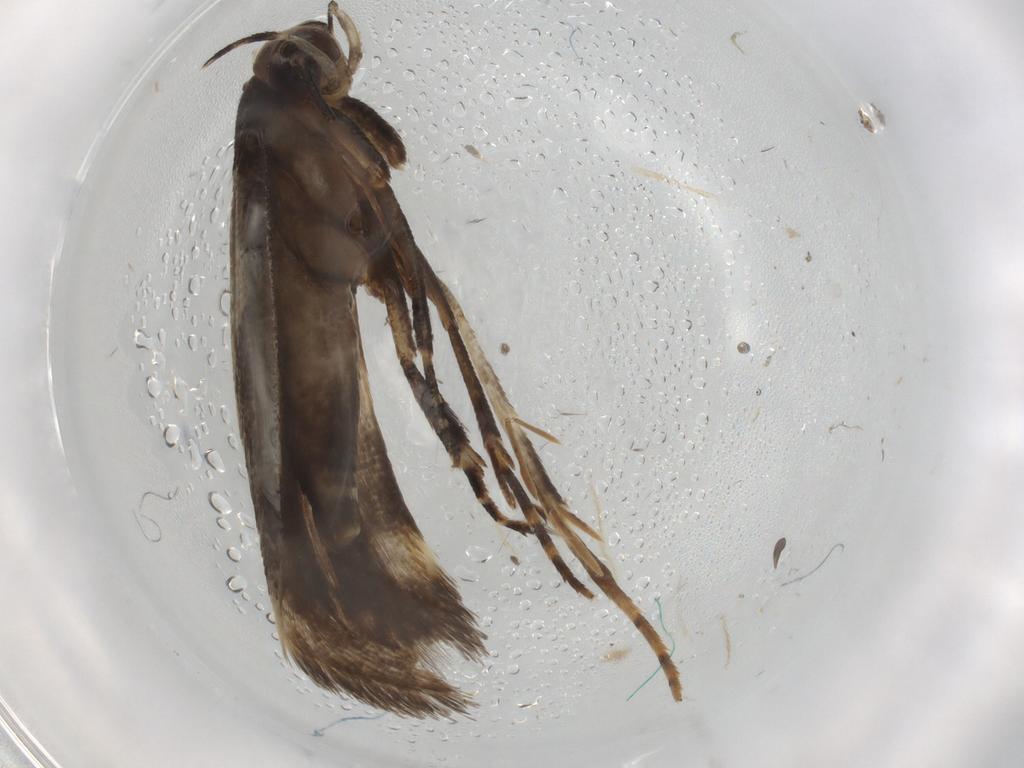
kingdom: Animalia
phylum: Arthropoda
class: Insecta
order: Lepidoptera
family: Gelechiidae
